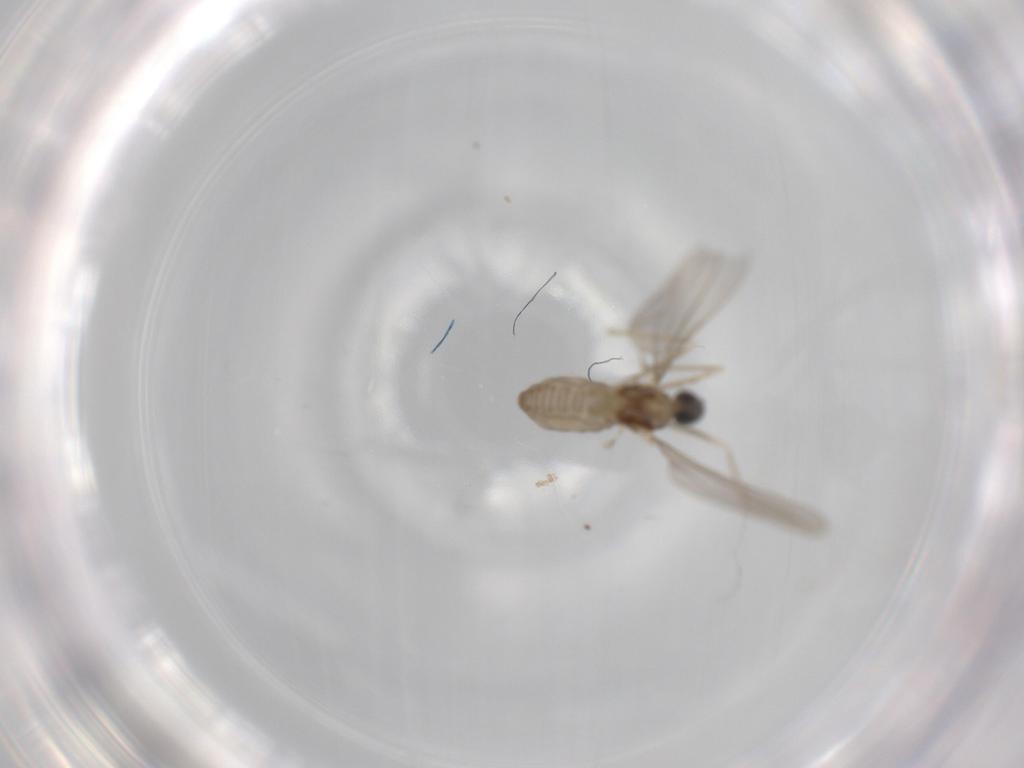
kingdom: Animalia
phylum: Arthropoda
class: Insecta
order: Diptera
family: Cecidomyiidae
